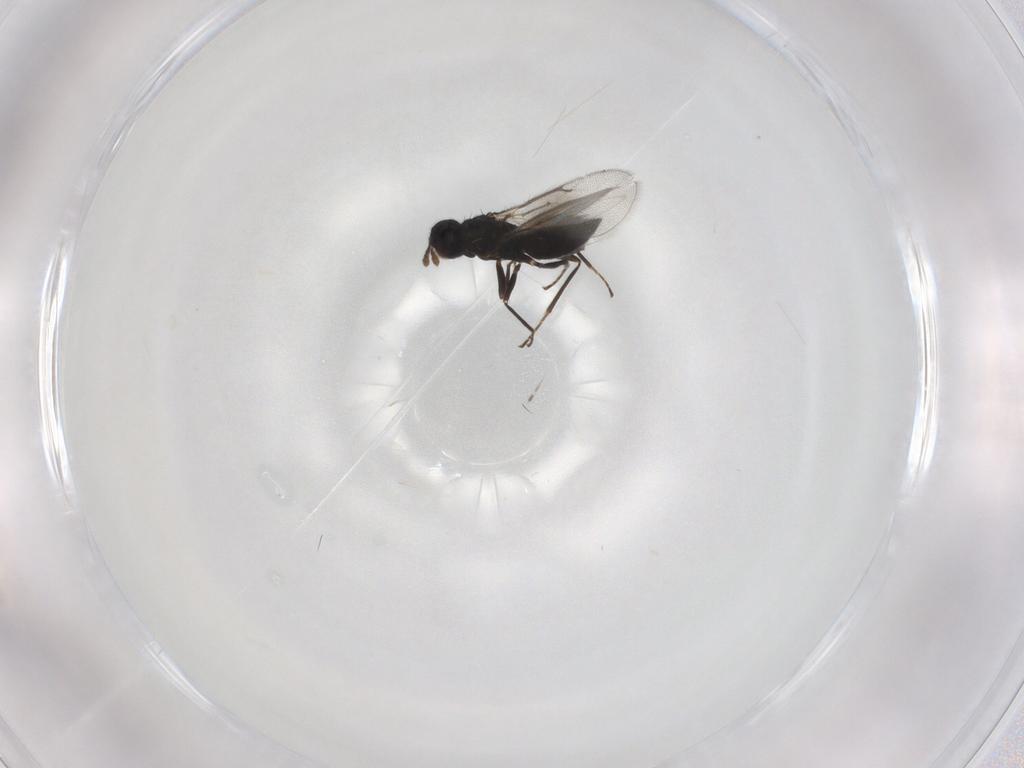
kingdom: Animalia
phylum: Arthropoda
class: Insecta
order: Hymenoptera
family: Eulophidae
